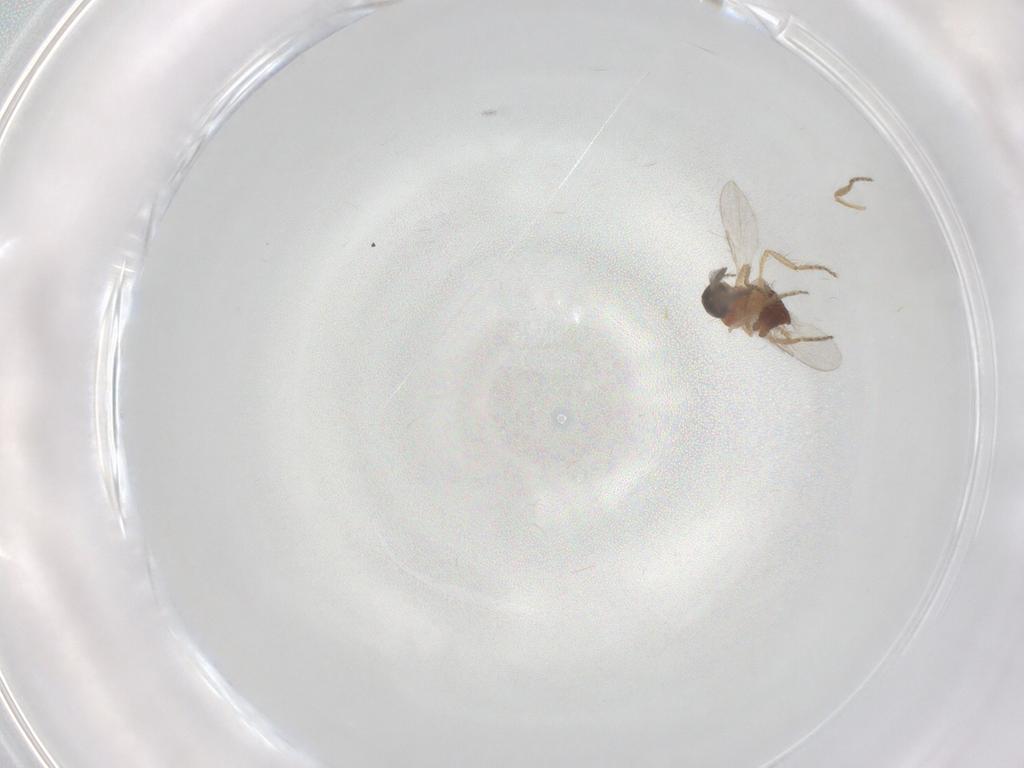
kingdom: Animalia
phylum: Arthropoda
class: Insecta
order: Diptera
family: Ceratopogonidae
